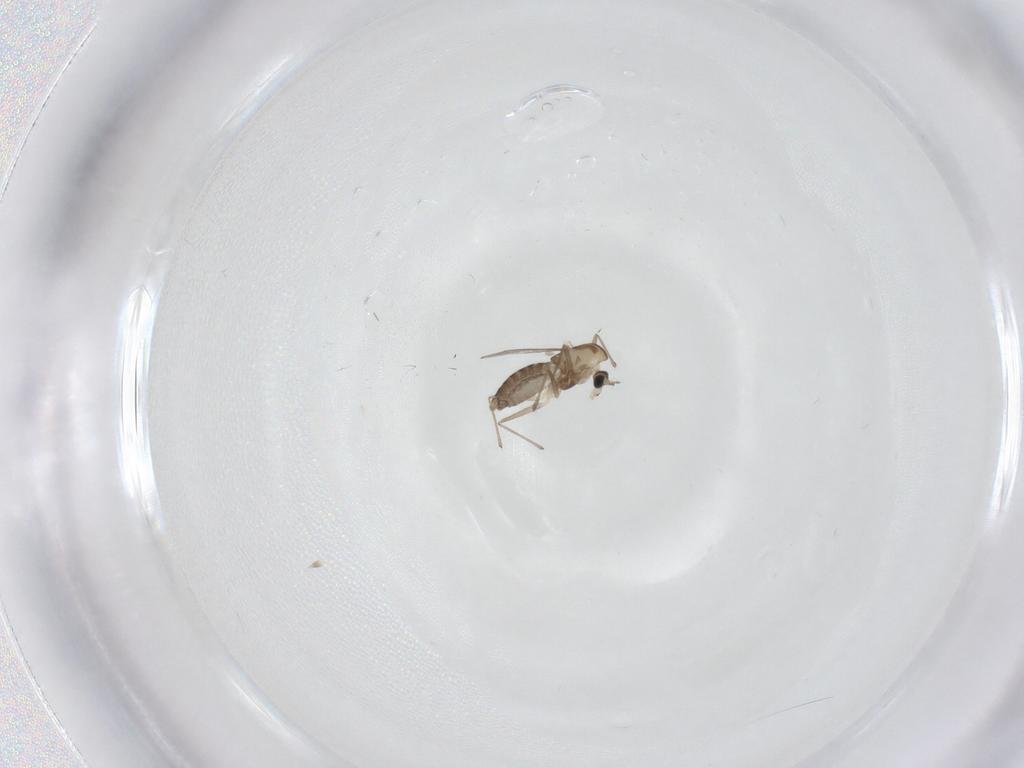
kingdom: Animalia
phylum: Arthropoda
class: Insecta
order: Diptera
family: Chironomidae
